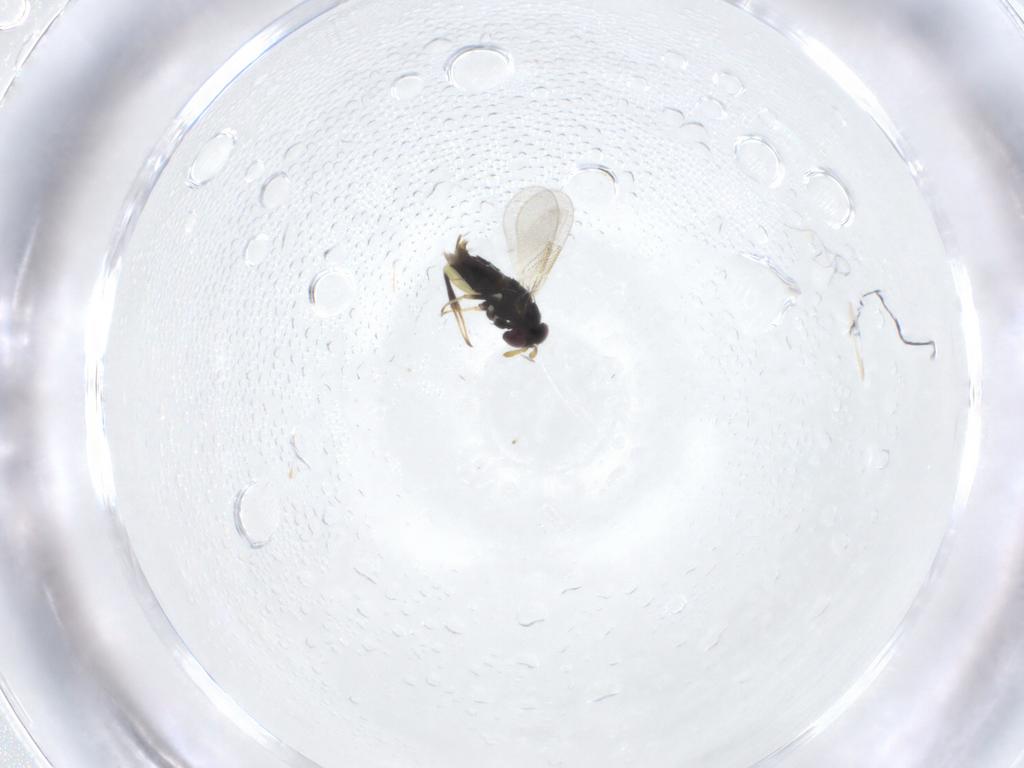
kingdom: Animalia
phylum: Arthropoda
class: Insecta
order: Hymenoptera
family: Aphelinidae
